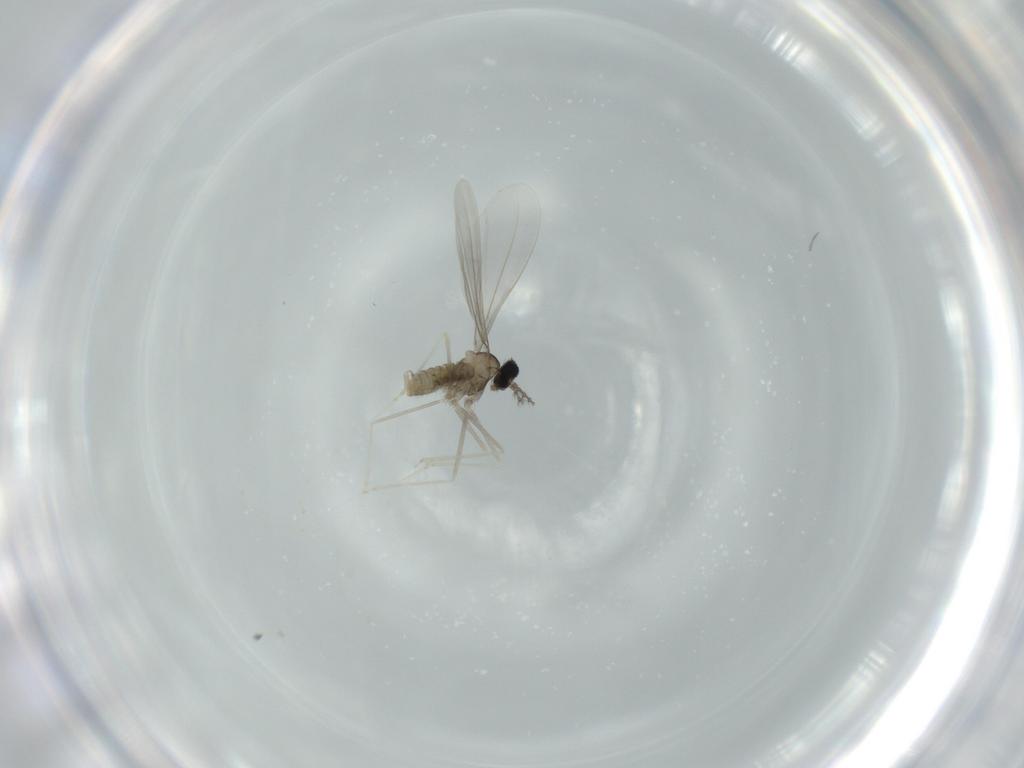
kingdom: Animalia
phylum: Arthropoda
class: Insecta
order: Diptera
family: Cecidomyiidae
